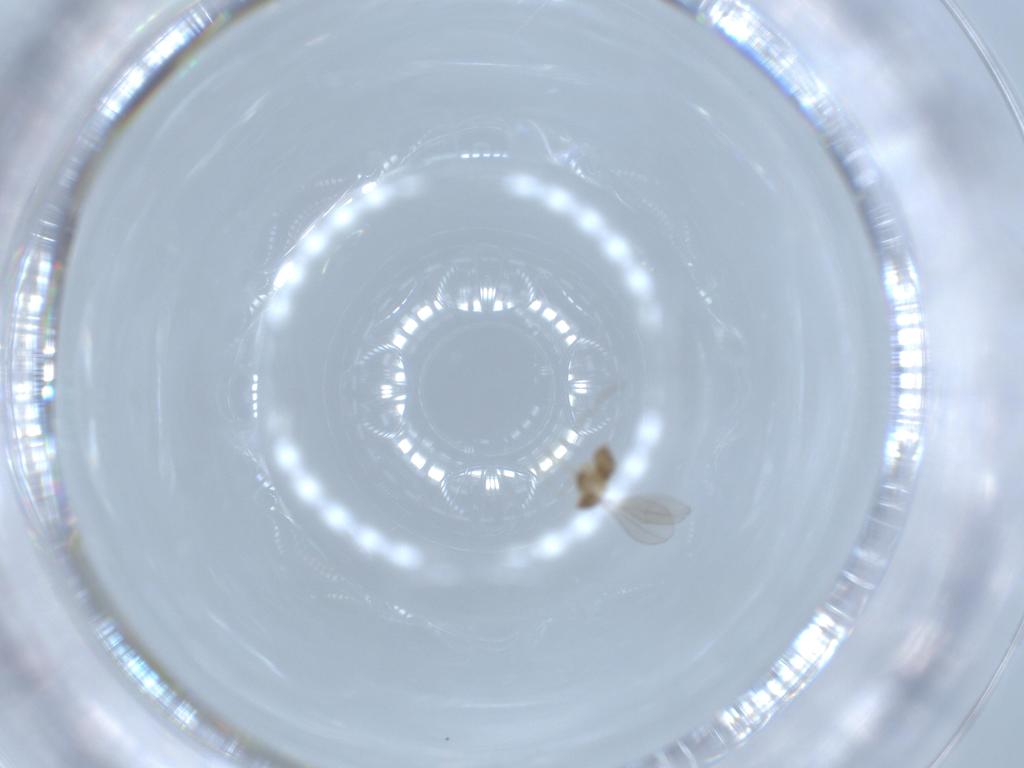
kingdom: Animalia
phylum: Arthropoda
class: Insecta
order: Diptera
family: Cecidomyiidae
